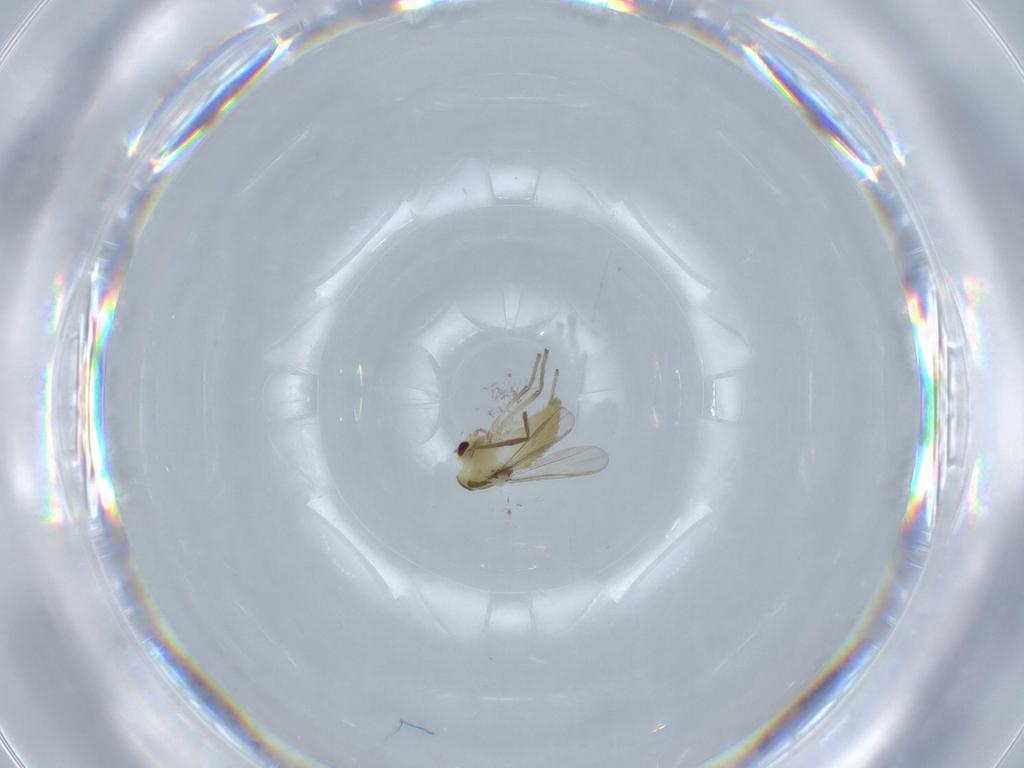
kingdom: Animalia
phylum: Arthropoda
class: Insecta
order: Diptera
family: Chironomidae
